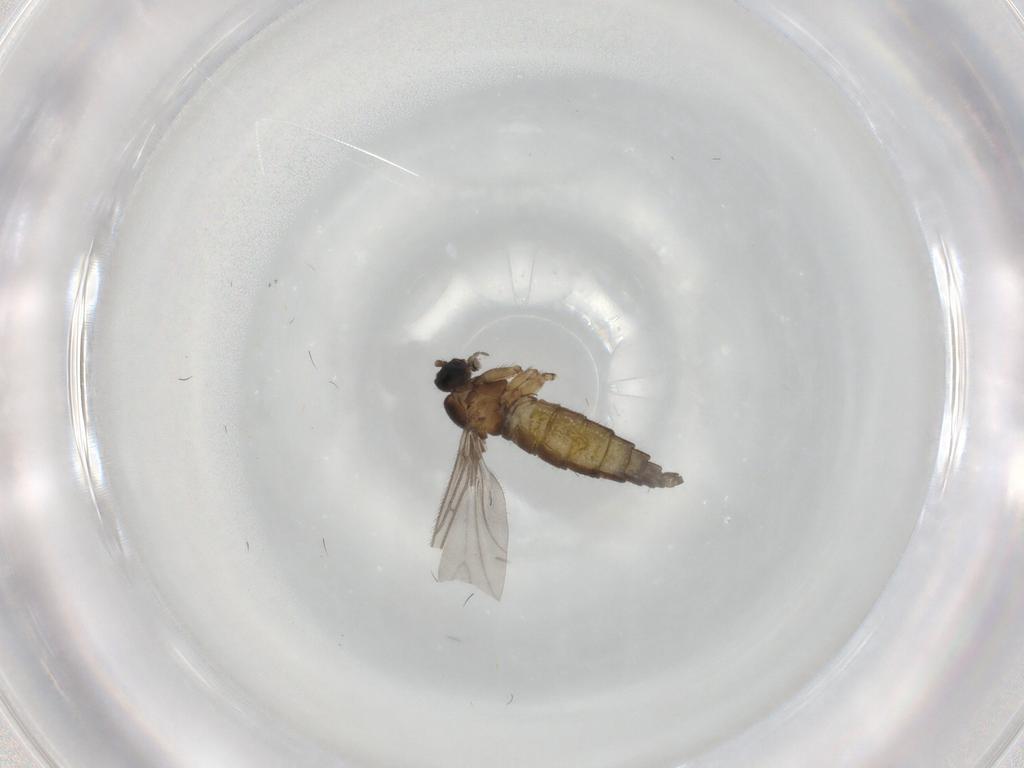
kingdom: Animalia
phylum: Arthropoda
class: Insecta
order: Diptera
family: Sciaridae
